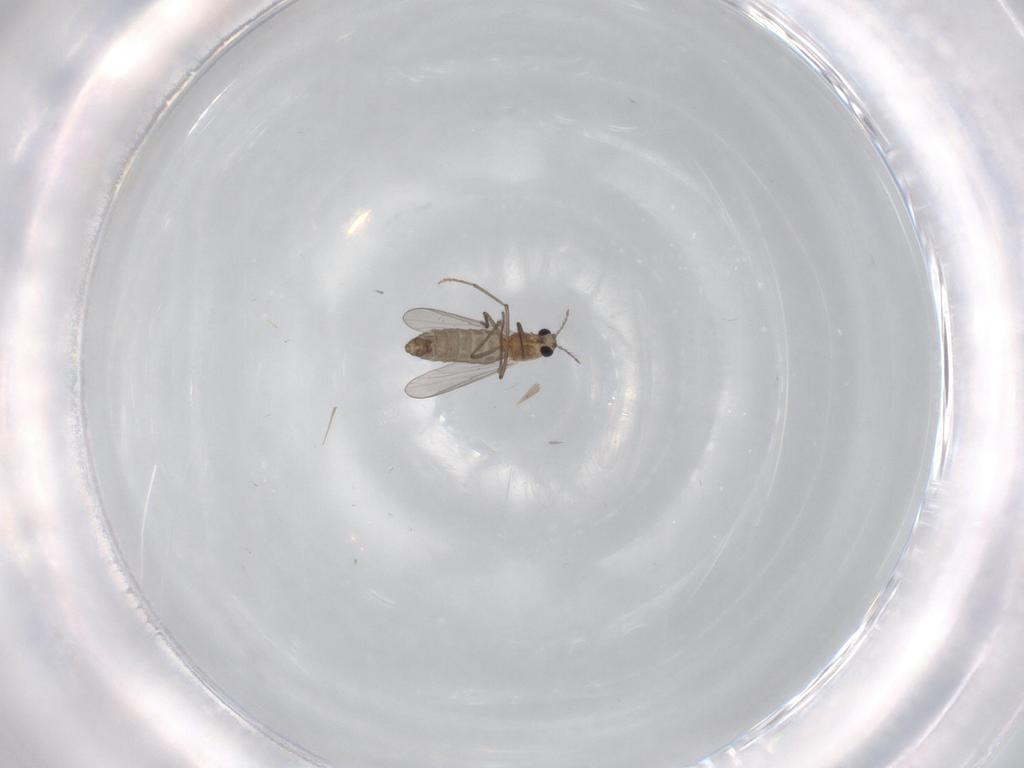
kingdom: Animalia
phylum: Arthropoda
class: Insecta
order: Diptera
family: Chironomidae
